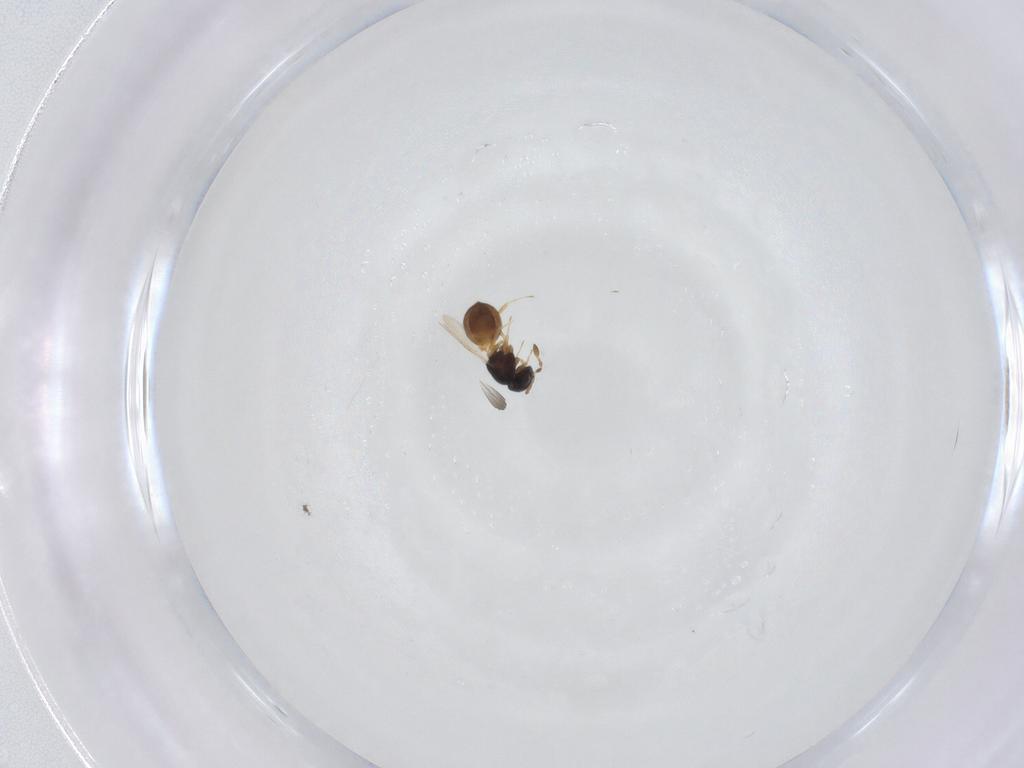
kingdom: Animalia
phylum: Arthropoda
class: Insecta
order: Hymenoptera
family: Scelionidae
